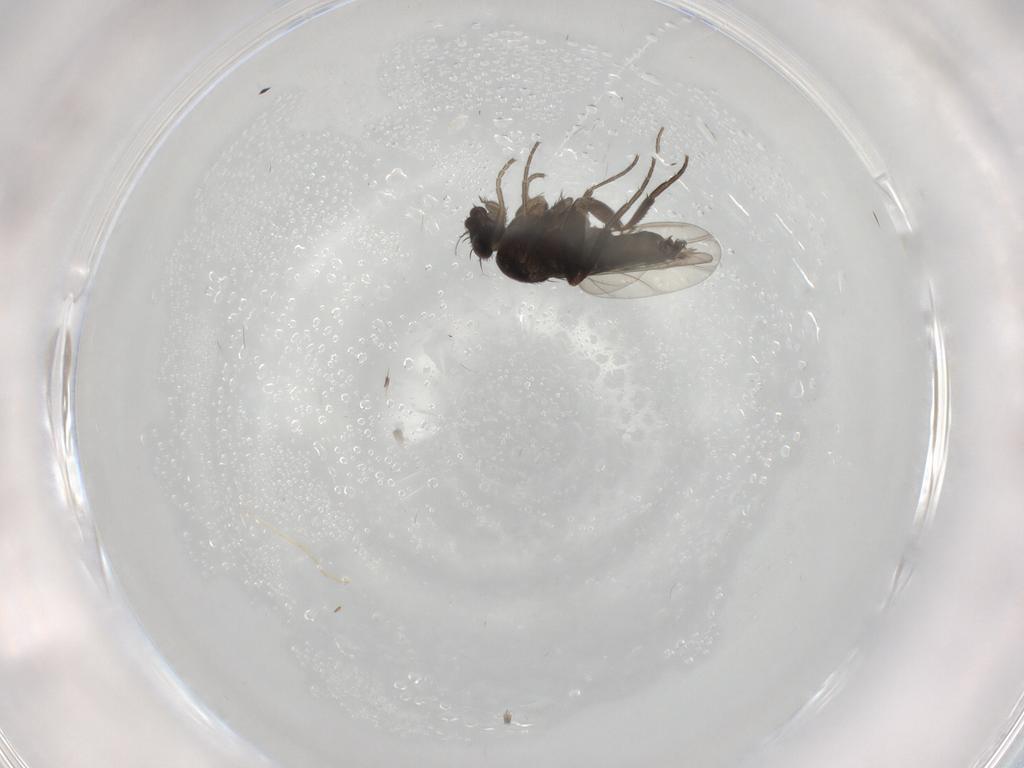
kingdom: Animalia
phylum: Arthropoda
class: Insecta
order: Diptera
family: Phoridae
